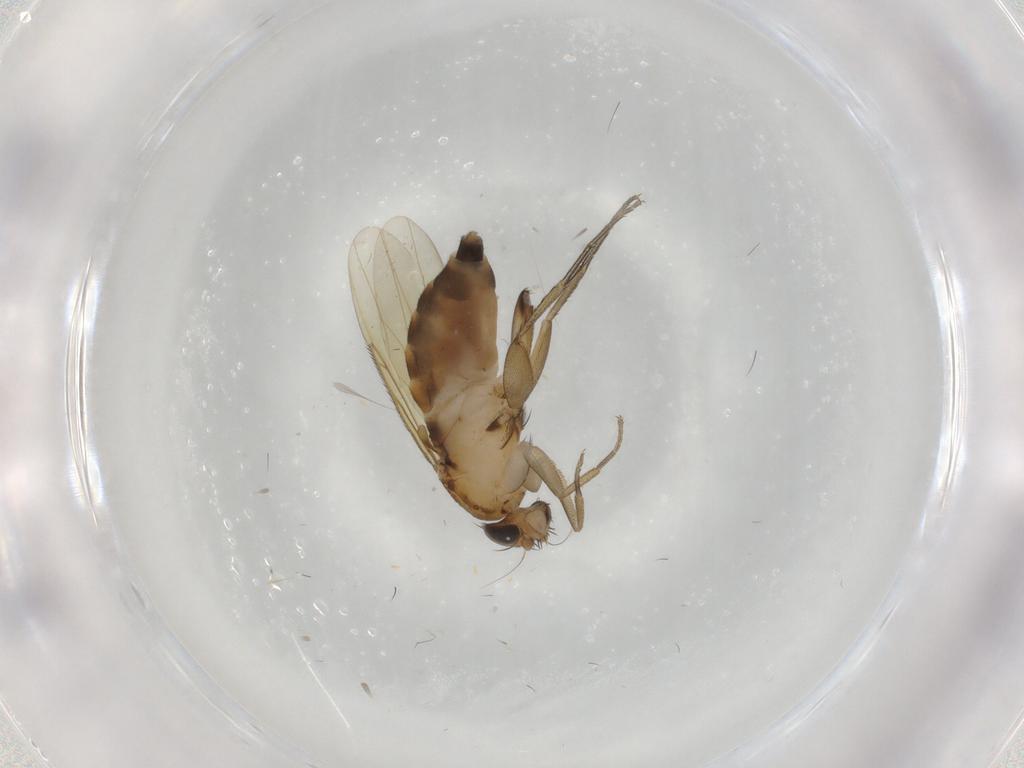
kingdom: Animalia
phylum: Arthropoda
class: Insecta
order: Diptera
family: Phoridae
